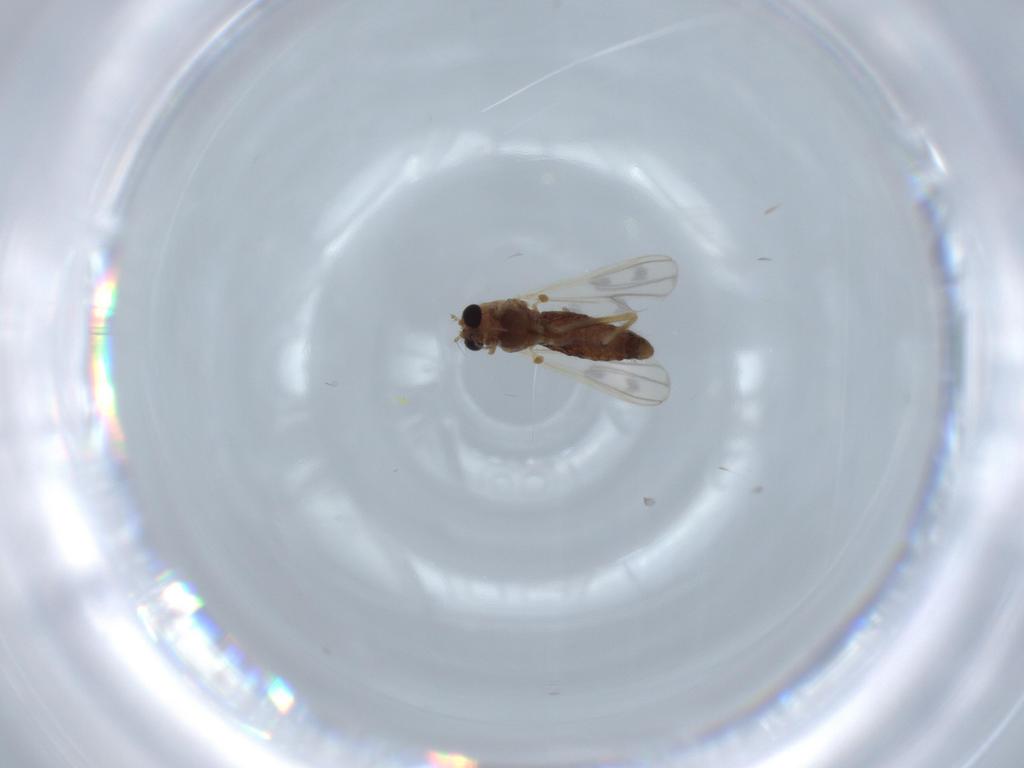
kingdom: Animalia
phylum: Arthropoda
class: Insecta
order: Diptera
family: Chironomidae
